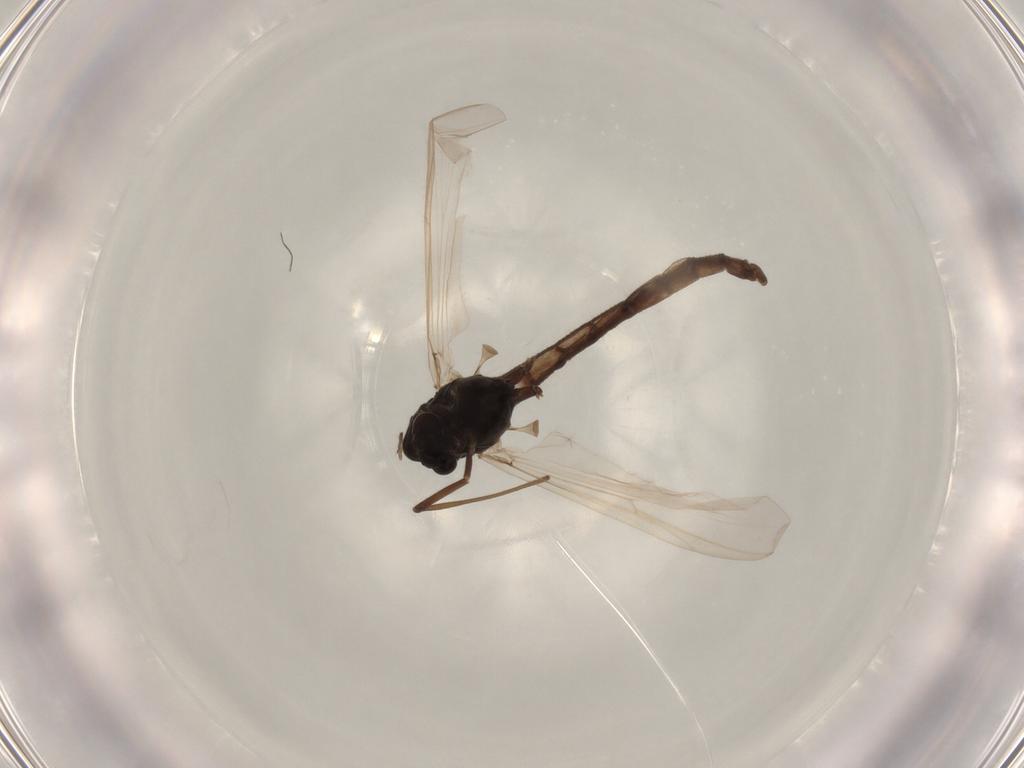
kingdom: Animalia
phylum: Arthropoda
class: Insecta
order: Diptera
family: Chironomidae
